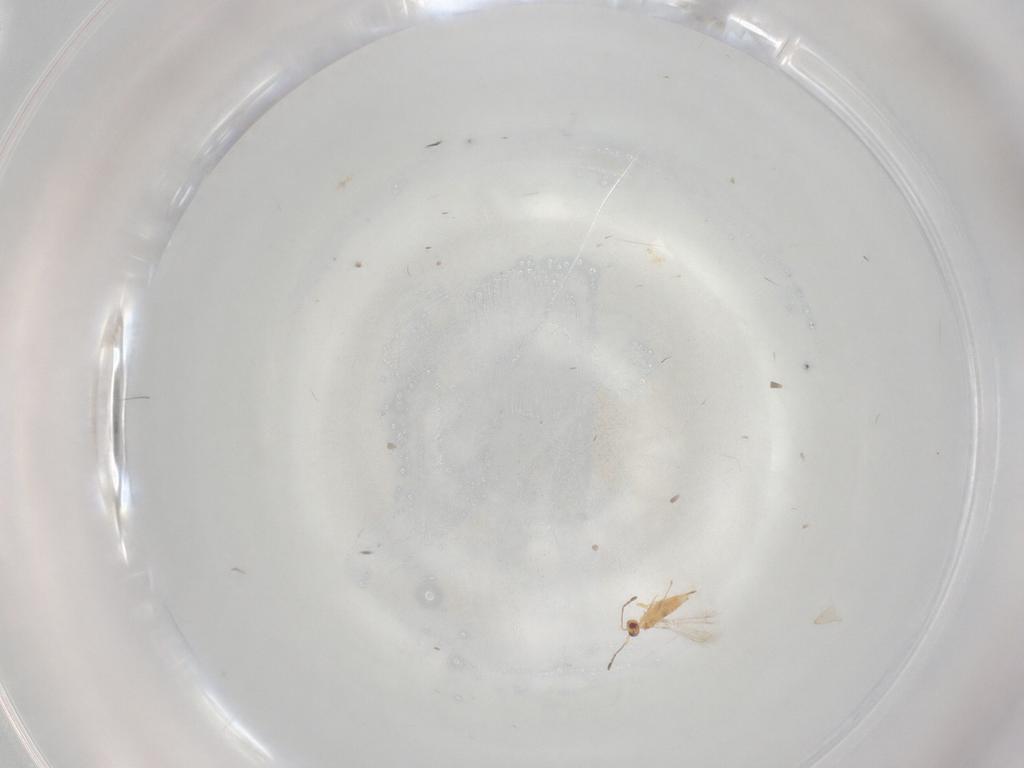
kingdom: Animalia
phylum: Arthropoda
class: Insecta
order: Hymenoptera
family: Mymaridae
